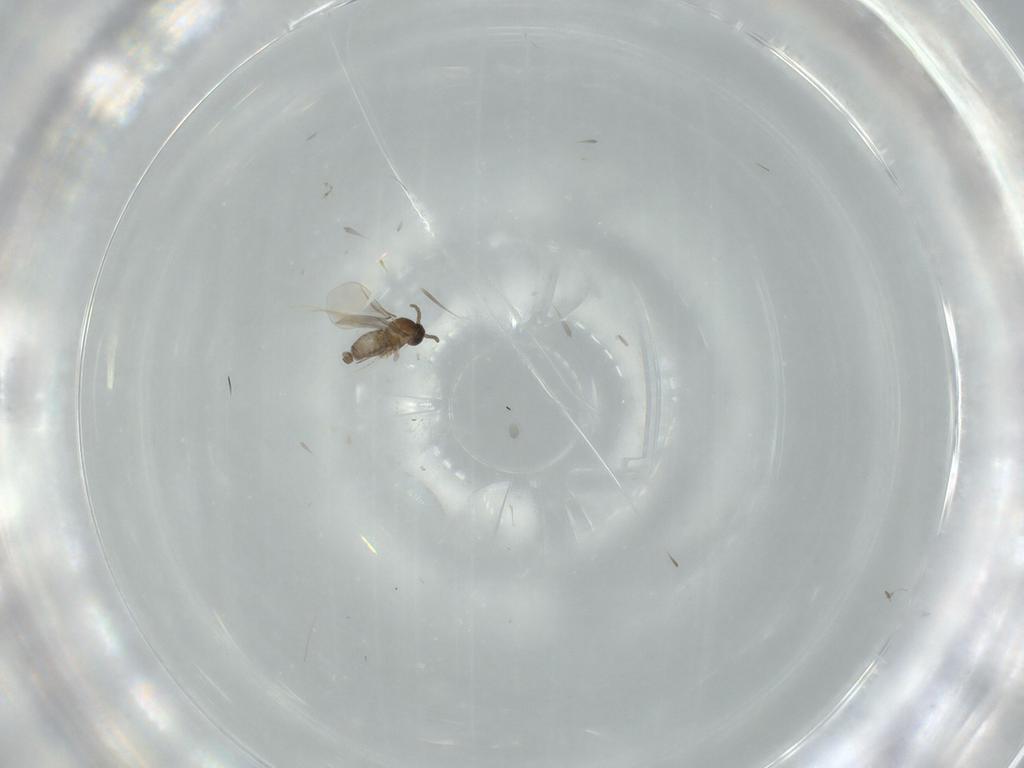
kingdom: Animalia
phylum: Arthropoda
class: Insecta
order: Diptera
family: Cecidomyiidae
